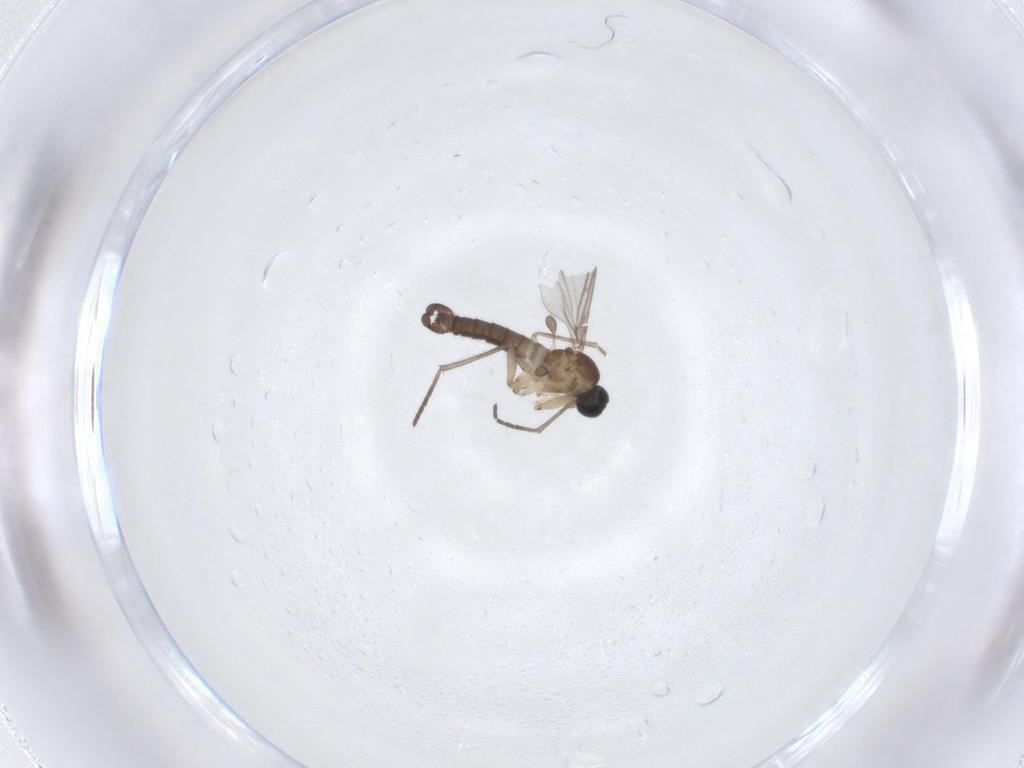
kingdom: Animalia
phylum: Arthropoda
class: Insecta
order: Diptera
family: Sciaridae
